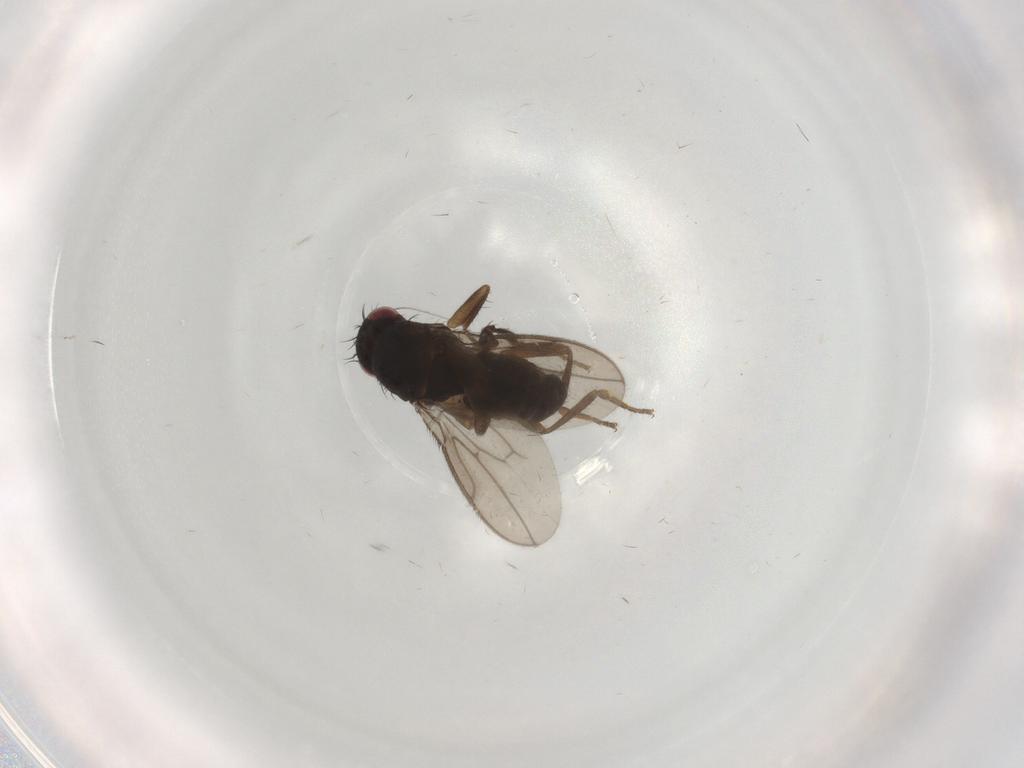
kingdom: Animalia
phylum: Arthropoda
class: Insecta
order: Diptera
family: Sphaeroceridae
